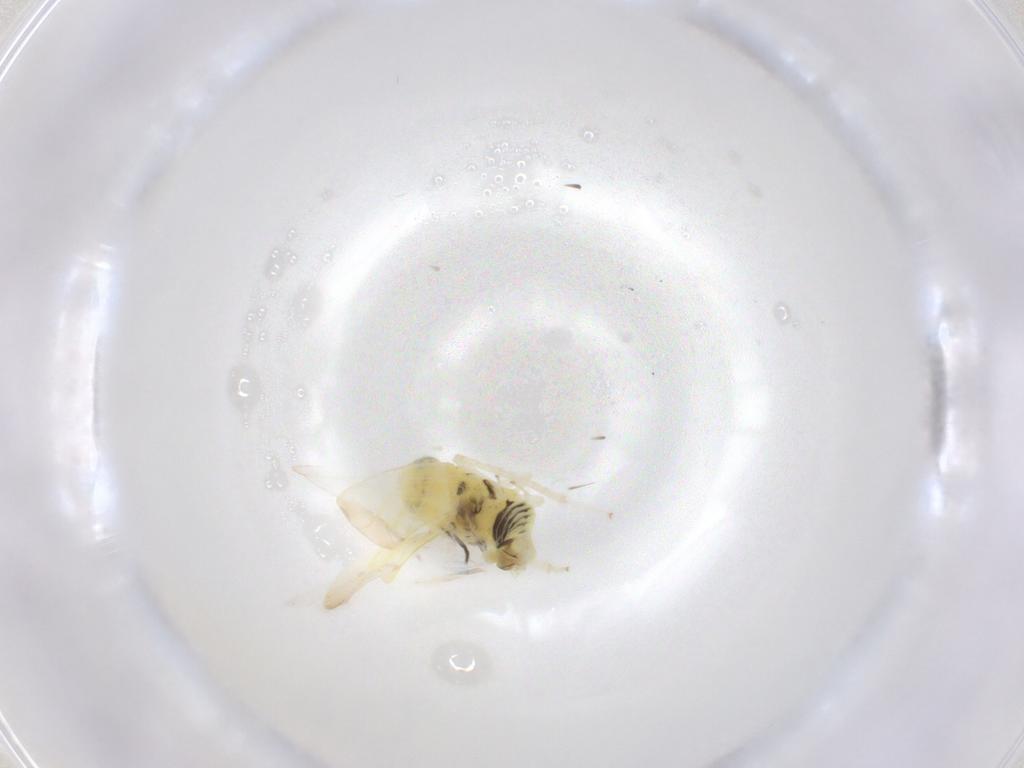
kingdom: Animalia
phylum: Arthropoda
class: Insecta
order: Hemiptera
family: Cicadellidae
